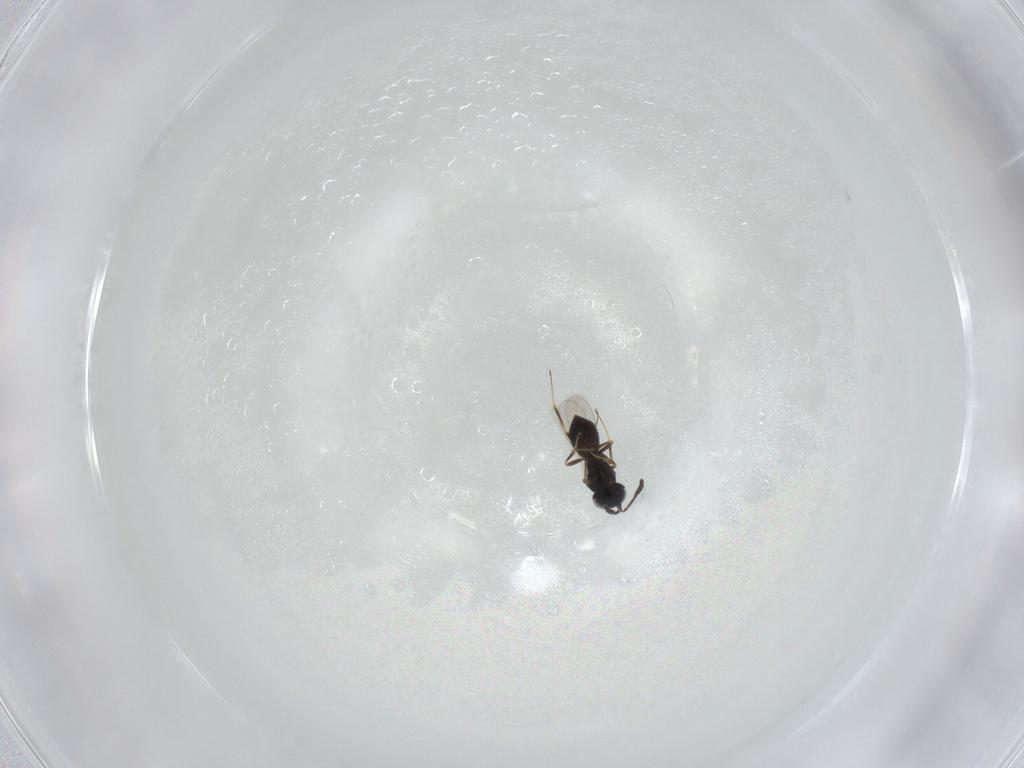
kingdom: Animalia
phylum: Arthropoda
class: Insecta
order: Hymenoptera
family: Scelionidae
